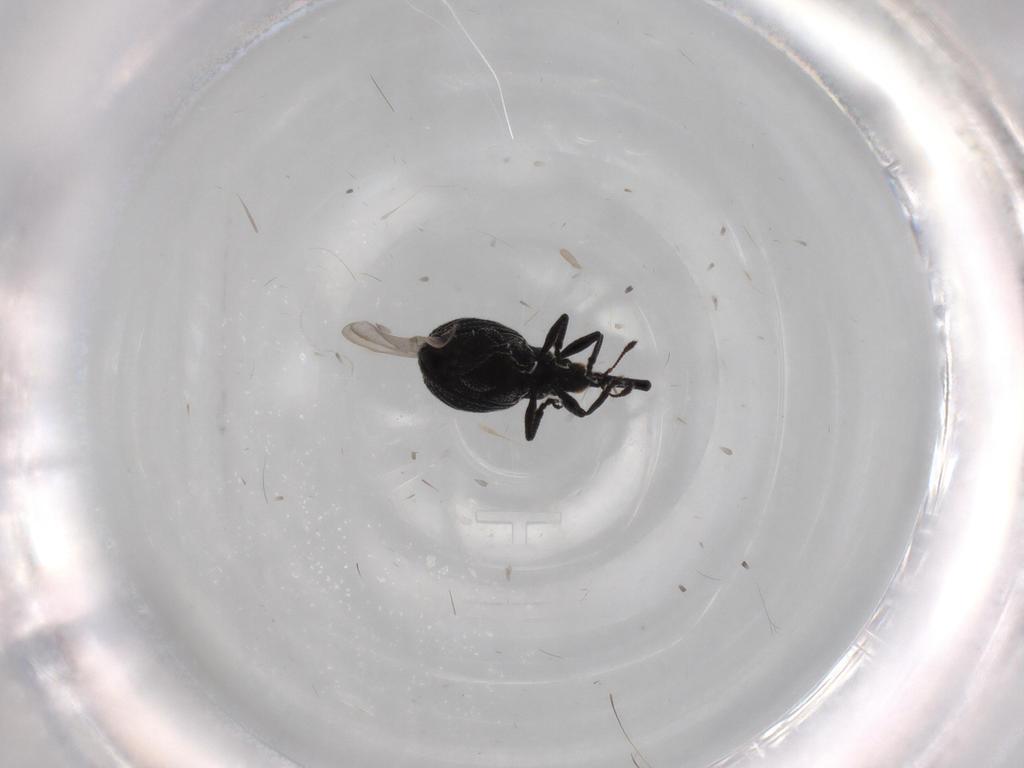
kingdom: Animalia
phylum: Arthropoda
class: Insecta
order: Coleoptera
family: Brentidae
